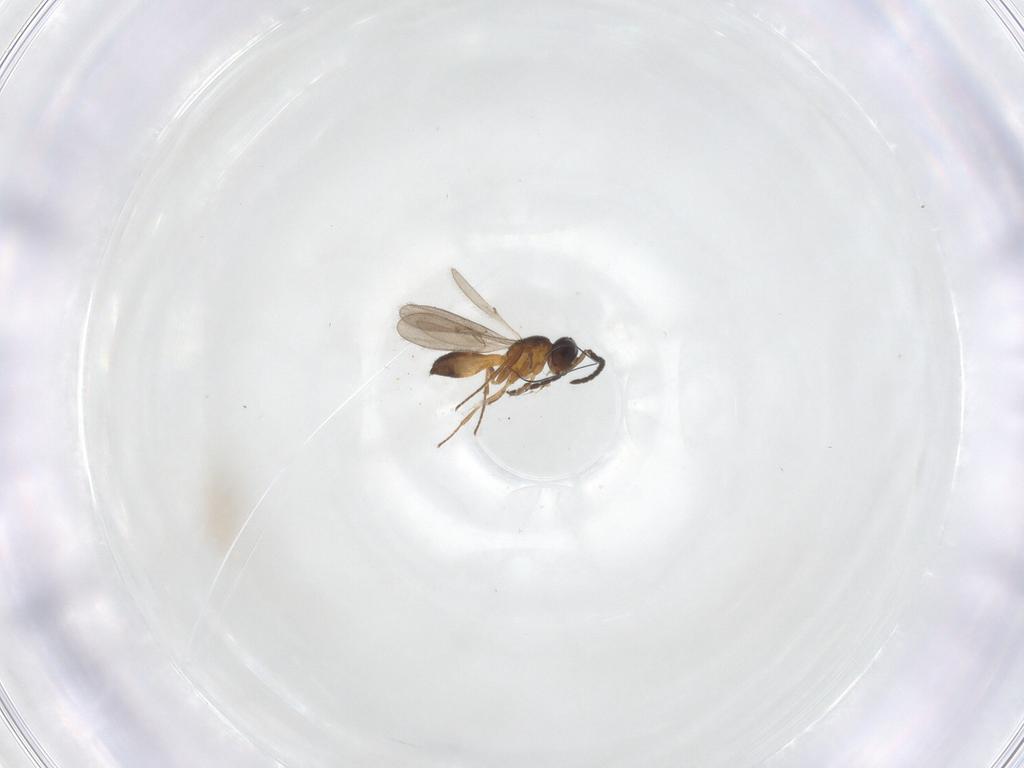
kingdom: Animalia
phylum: Arthropoda
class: Insecta
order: Hymenoptera
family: Scelionidae
